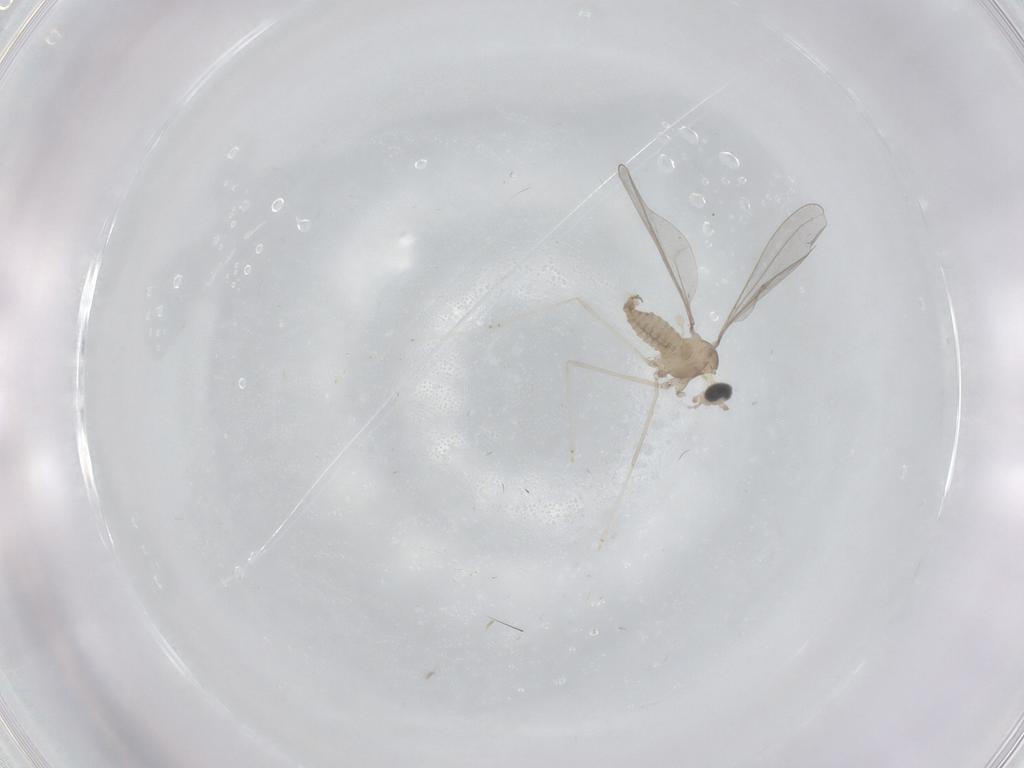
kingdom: Animalia
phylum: Arthropoda
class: Insecta
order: Diptera
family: Cecidomyiidae
